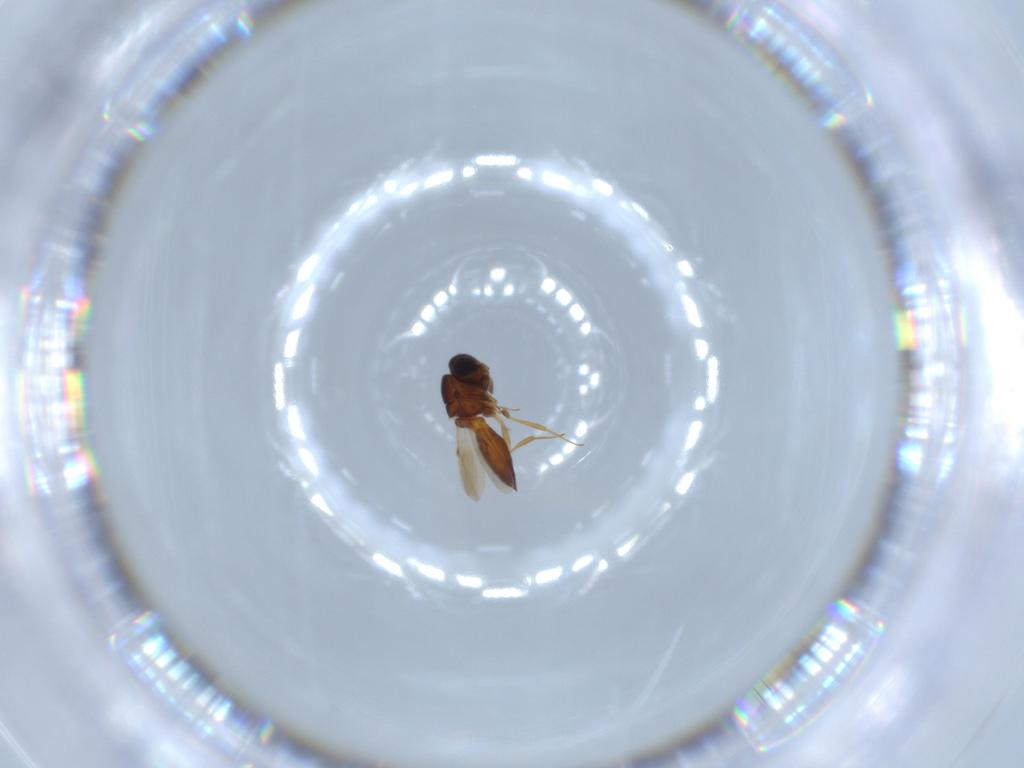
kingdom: Animalia
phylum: Arthropoda
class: Insecta
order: Hymenoptera
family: Scelionidae
